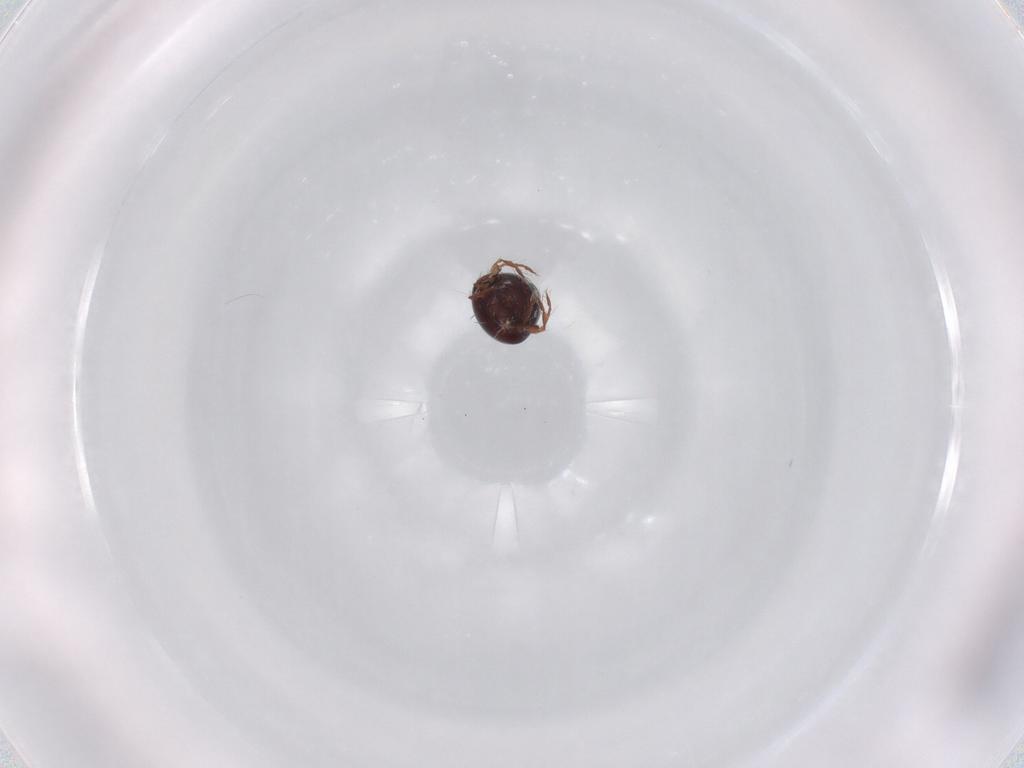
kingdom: Animalia
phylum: Arthropoda
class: Arachnida
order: Sarcoptiformes
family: Ceratoppiidae
